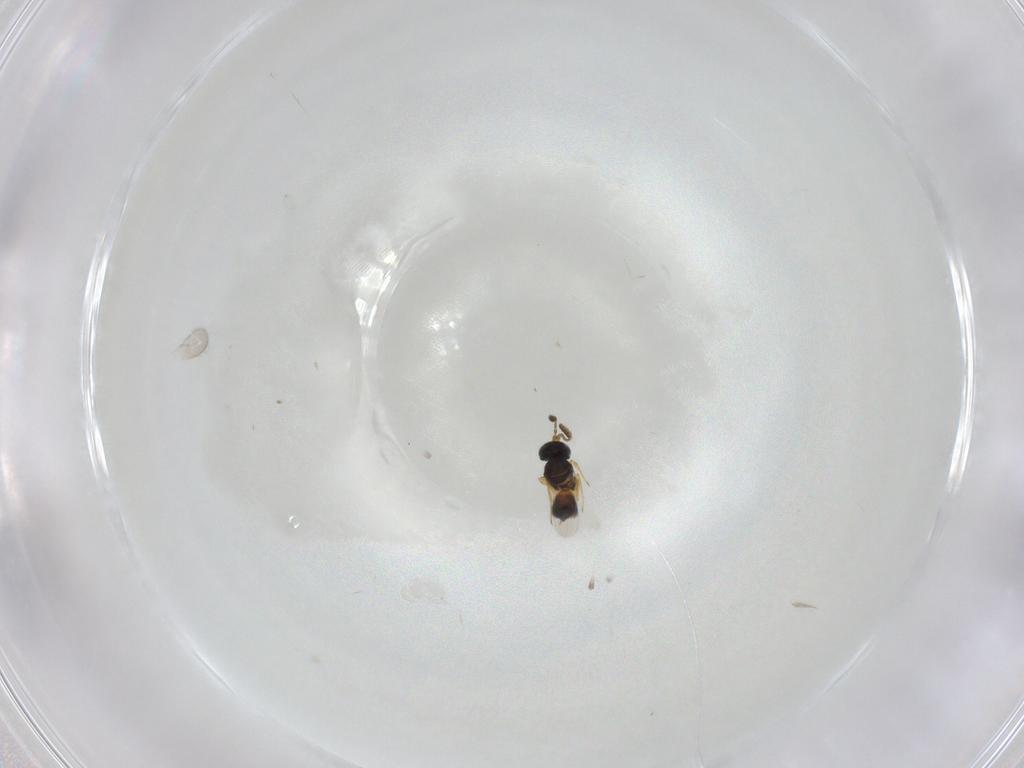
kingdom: Animalia
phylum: Arthropoda
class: Insecta
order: Hymenoptera
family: Scelionidae
